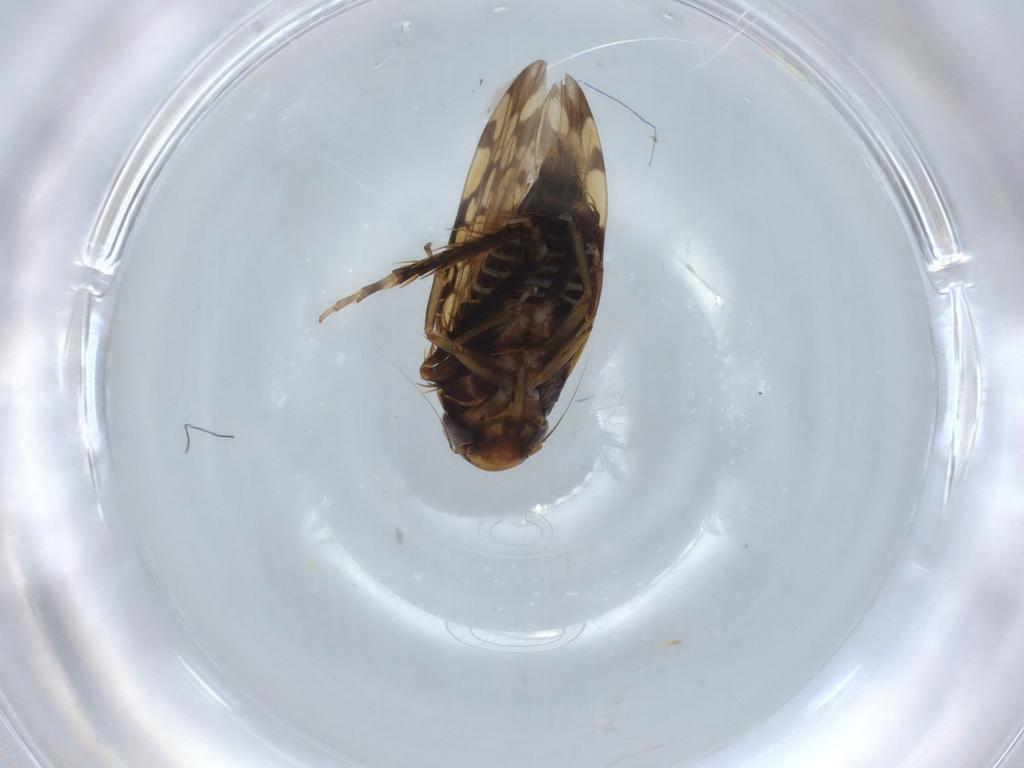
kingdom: Animalia
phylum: Arthropoda
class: Insecta
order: Hemiptera
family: Cicadellidae
